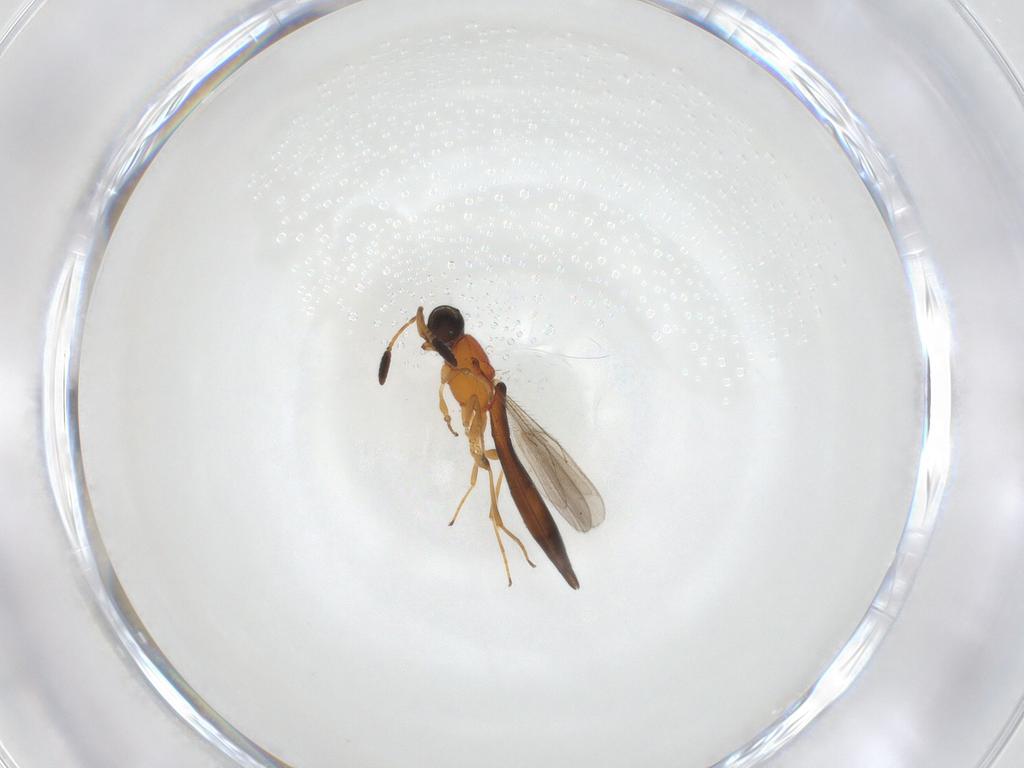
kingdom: Animalia
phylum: Arthropoda
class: Insecta
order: Hymenoptera
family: Scelionidae
